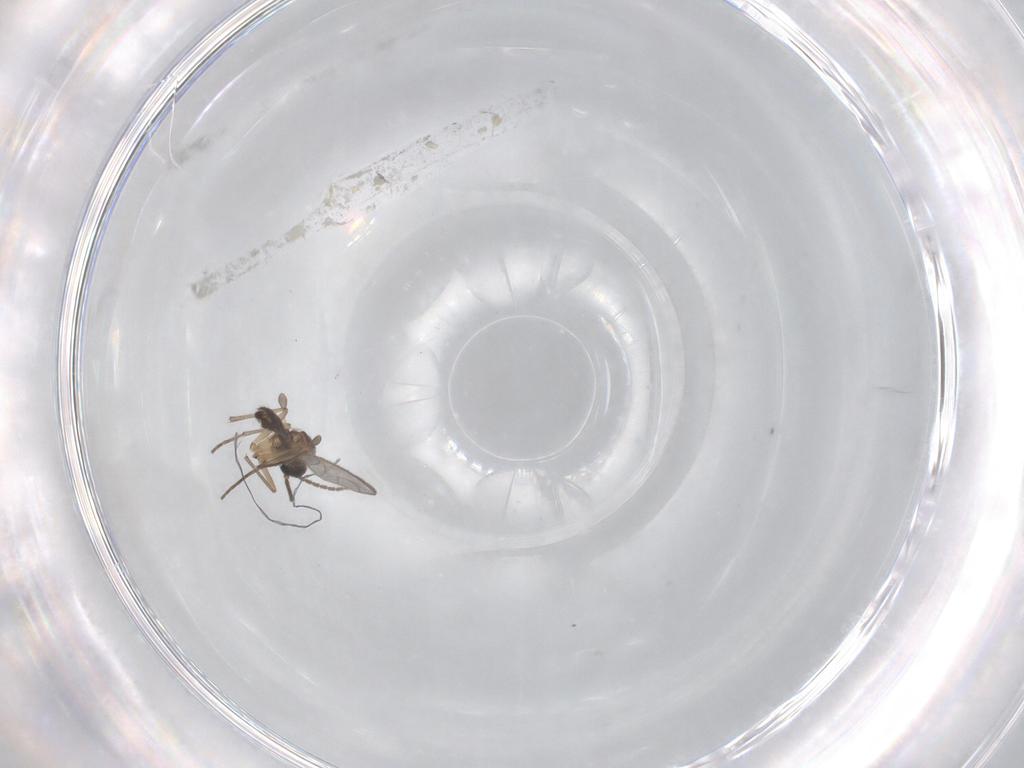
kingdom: Animalia
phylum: Arthropoda
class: Insecta
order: Diptera
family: Sciaridae
